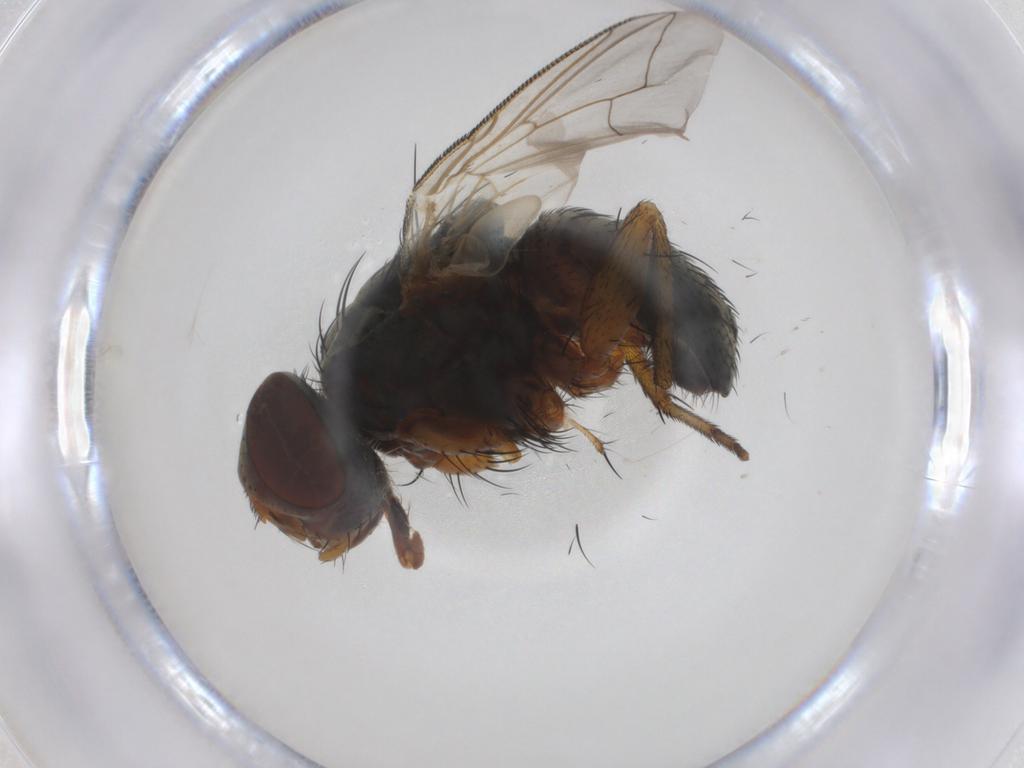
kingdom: Animalia
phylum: Arthropoda
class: Insecta
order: Diptera
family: Sarcophagidae
